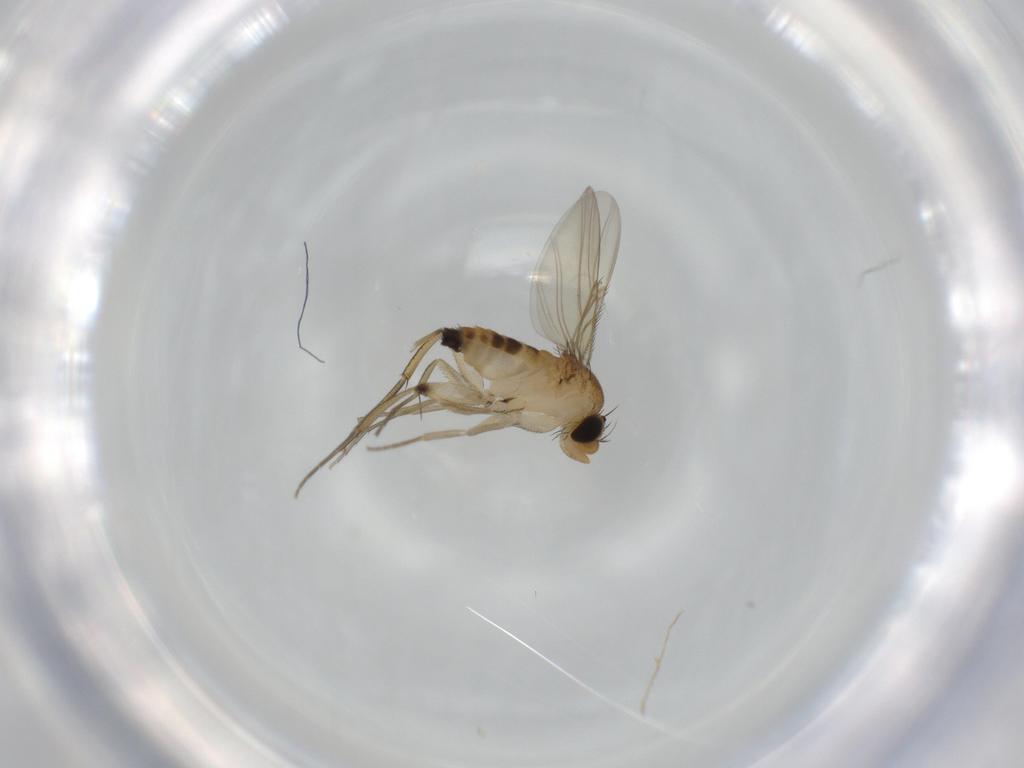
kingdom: Animalia
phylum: Arthropoda
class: Insecta
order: Diptera
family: Phoridae
